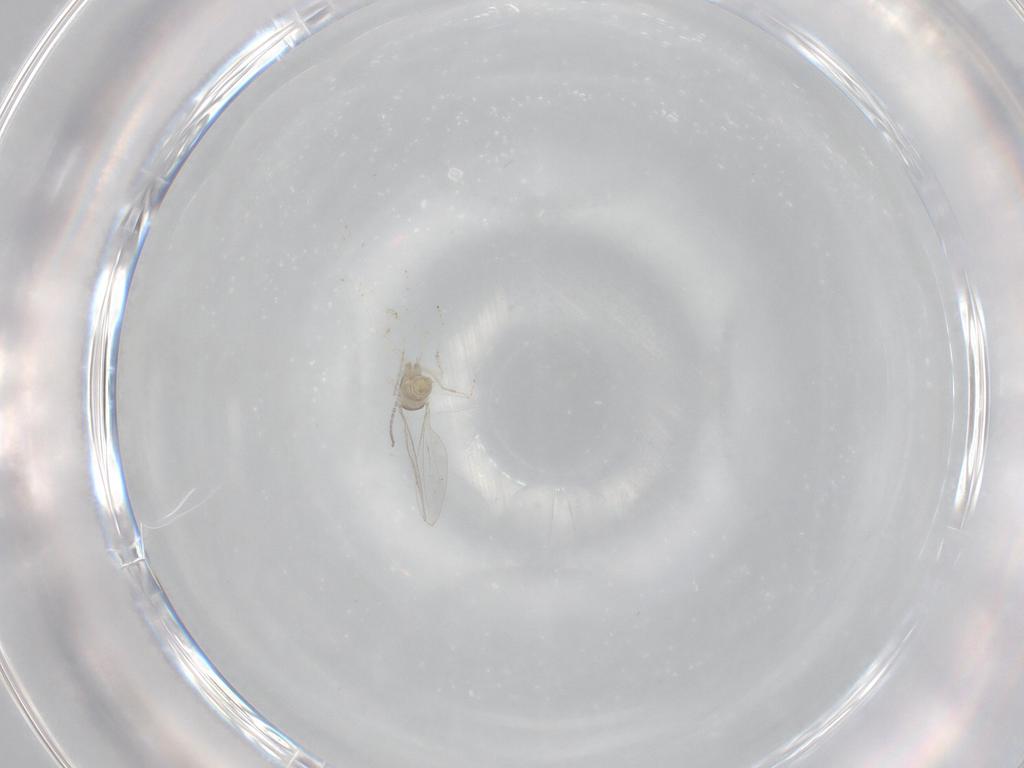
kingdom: Animalia
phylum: Arthropoda
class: Insecta
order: Diptera
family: Cecidomyiidae
